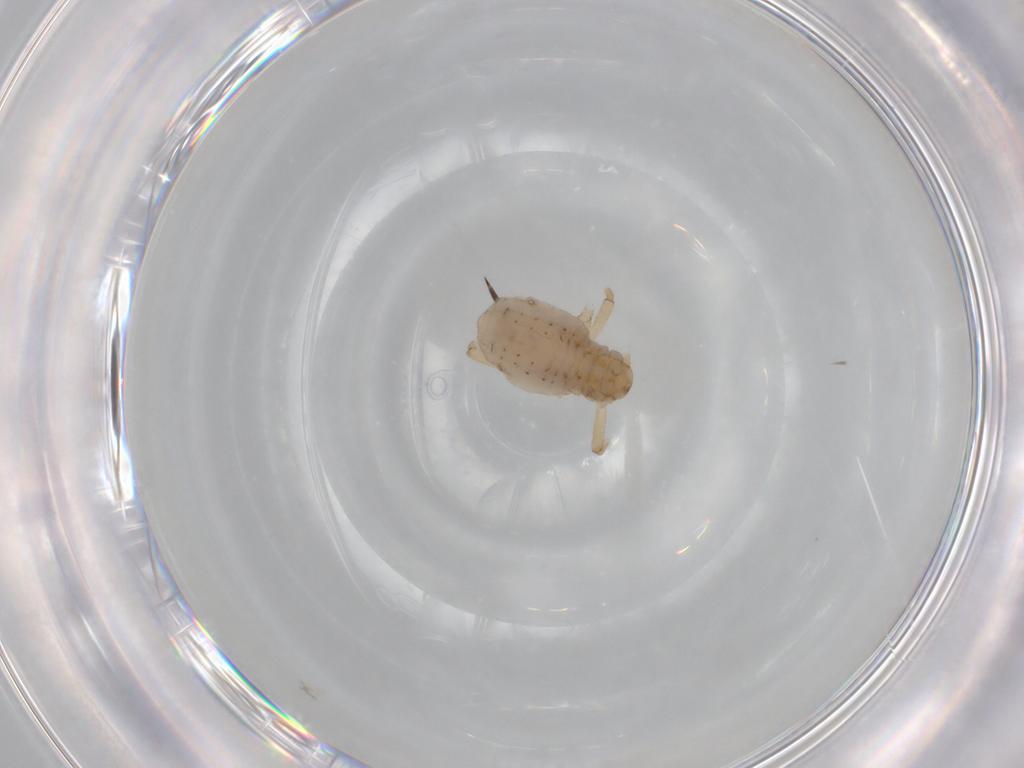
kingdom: Animalia
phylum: Arthropoda
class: Insecta
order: Hemiptera
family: Aphididae
